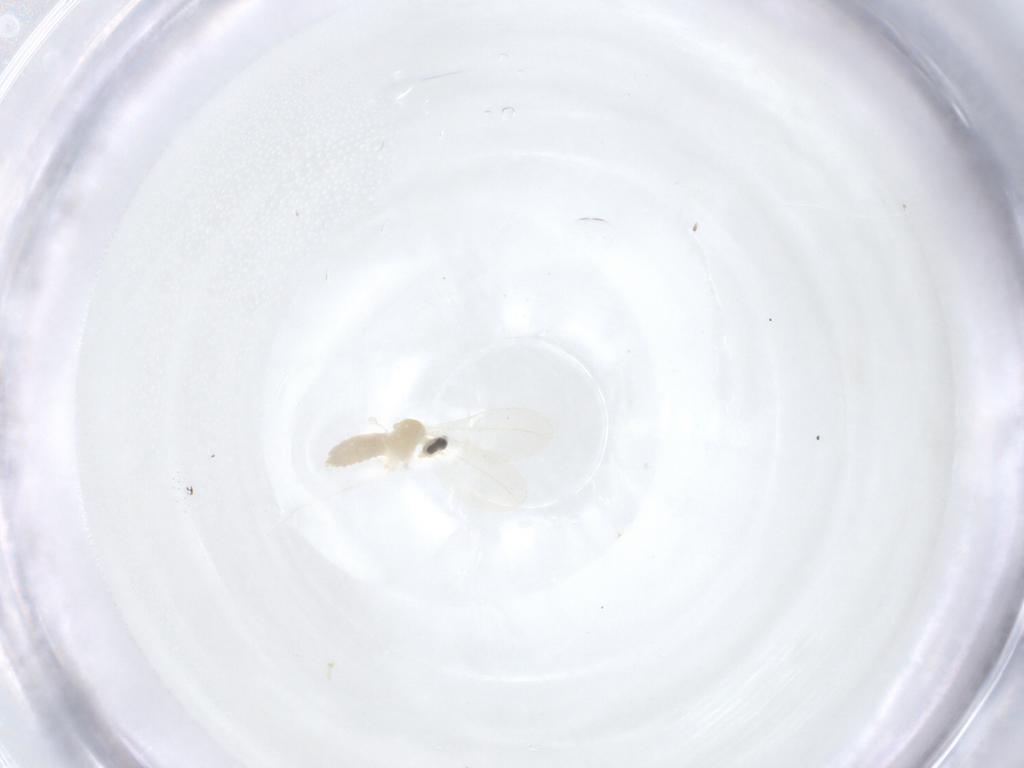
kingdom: Animalia
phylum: Arthropoda
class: Insecta
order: Diptera
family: Cecidomyiidae
